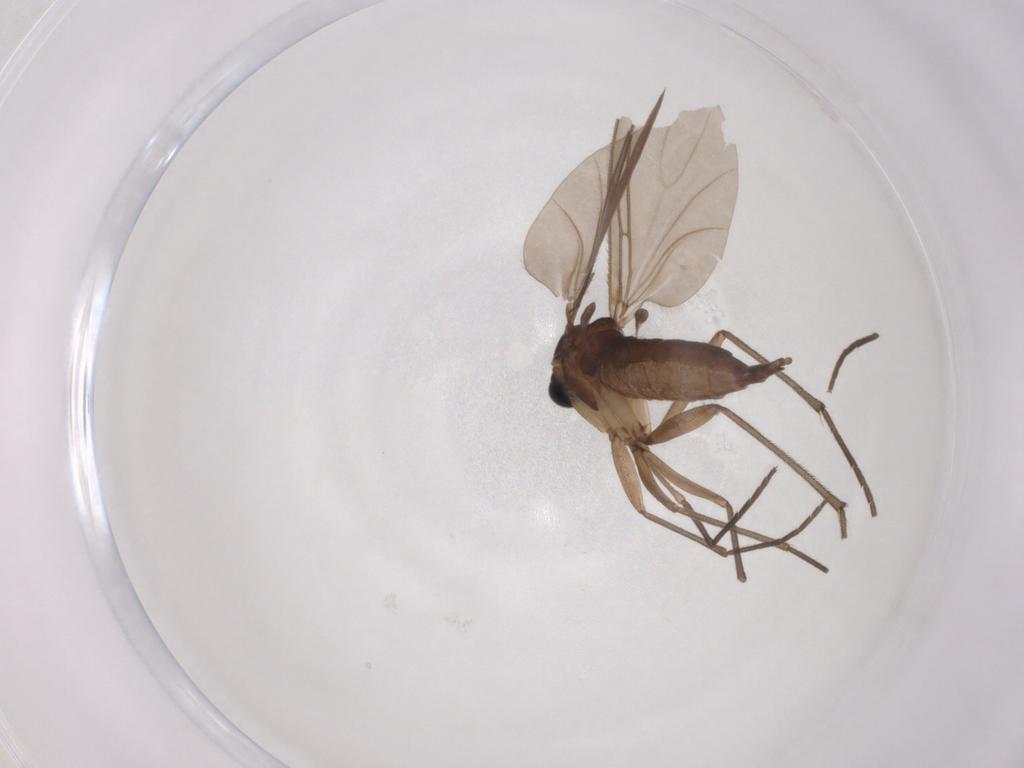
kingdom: Animalia
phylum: Arthropoda
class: Insecta
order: Diptera
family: Sciaridae
